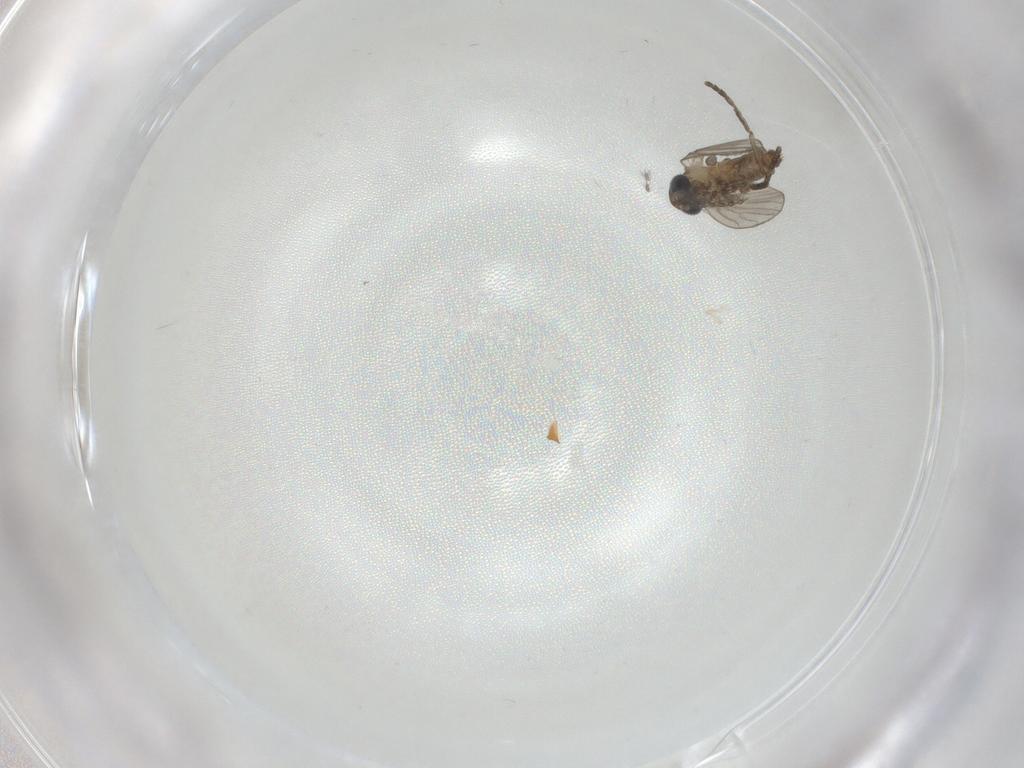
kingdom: Animalia
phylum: Arthropoda
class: Insecta
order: Diptera
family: Psychodidae
